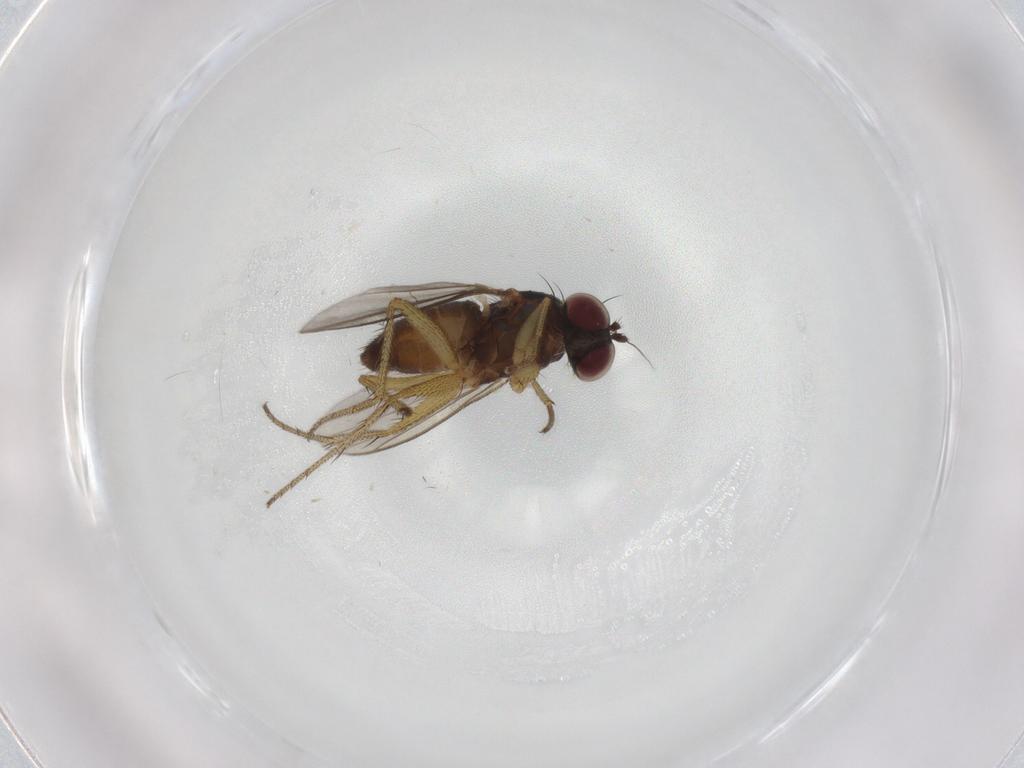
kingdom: Animalia
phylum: Arthropoda
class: Insecta
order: Diptera
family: Dolichopodidae
